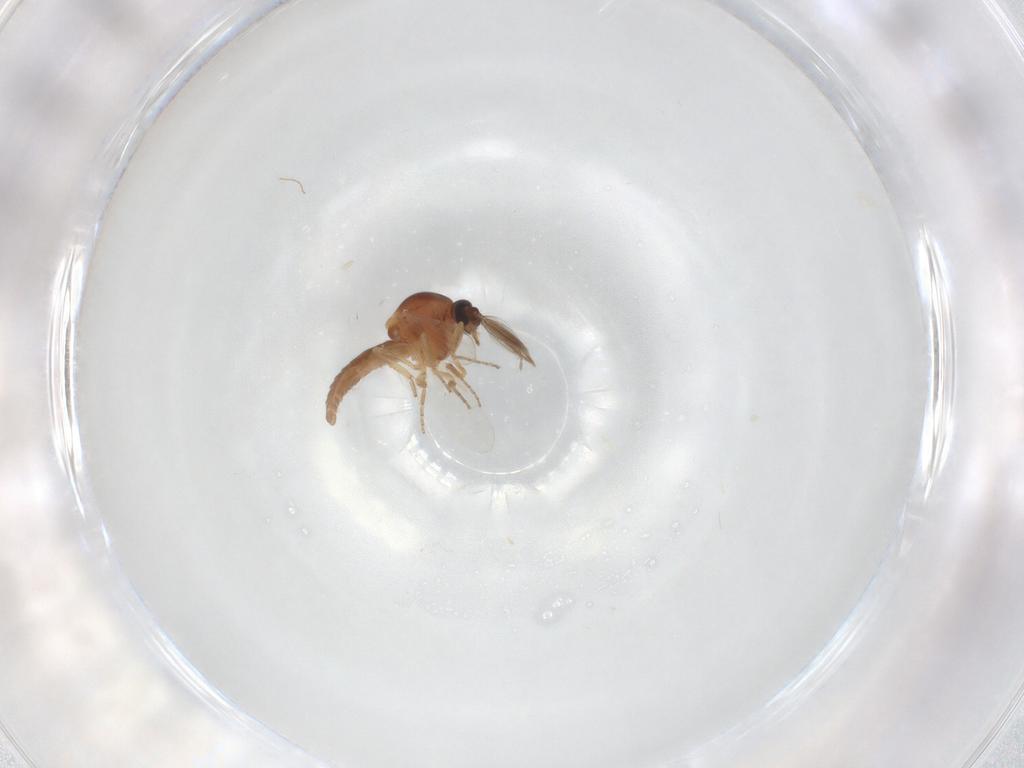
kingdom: Animalia
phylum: Arthropoda
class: Insecta
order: Diptera
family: Ceratopogonidae
